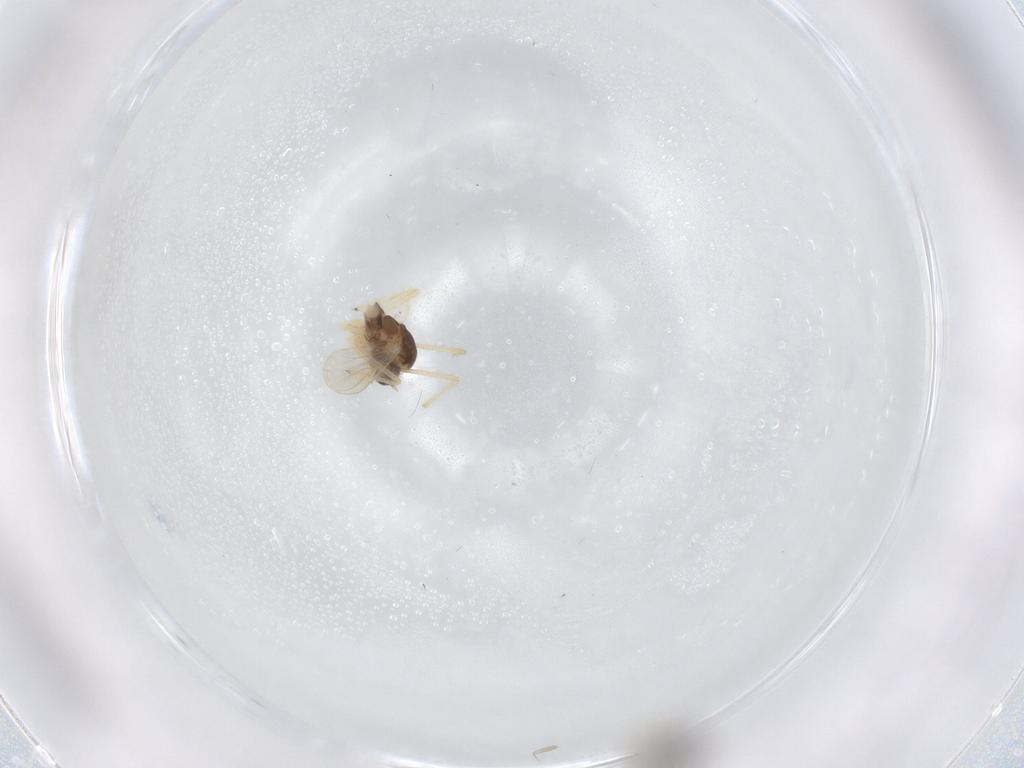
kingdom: Animalia
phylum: Arthropoda
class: Insecta
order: Diptera
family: Chironomidae
